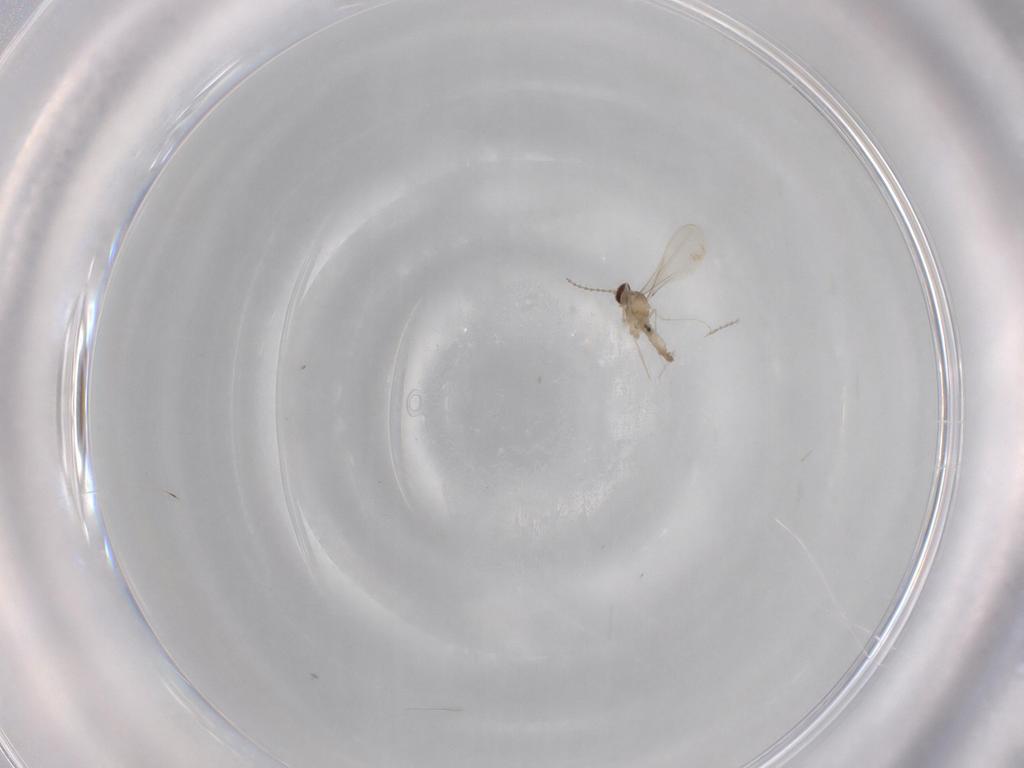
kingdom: Animalia
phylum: Arthropoda
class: Insecta
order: Diptera
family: Cecidomyiidae
